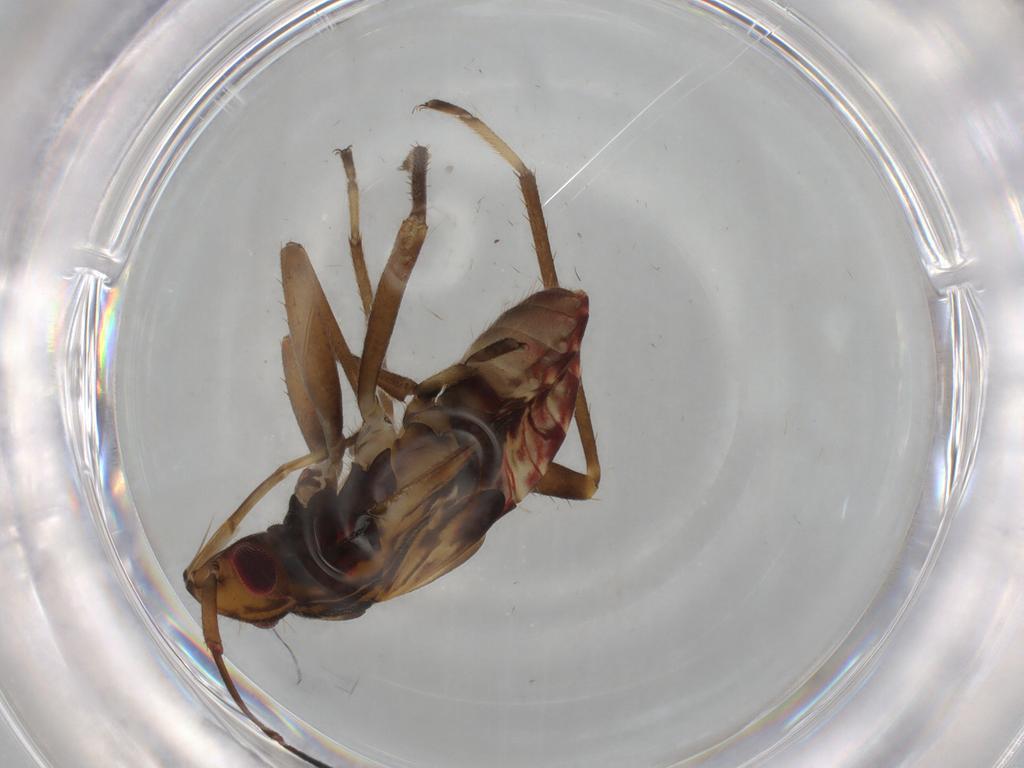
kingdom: Animalia
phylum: Arthropoda
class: Insecta
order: Hemiptera
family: Rhyparochromidae
